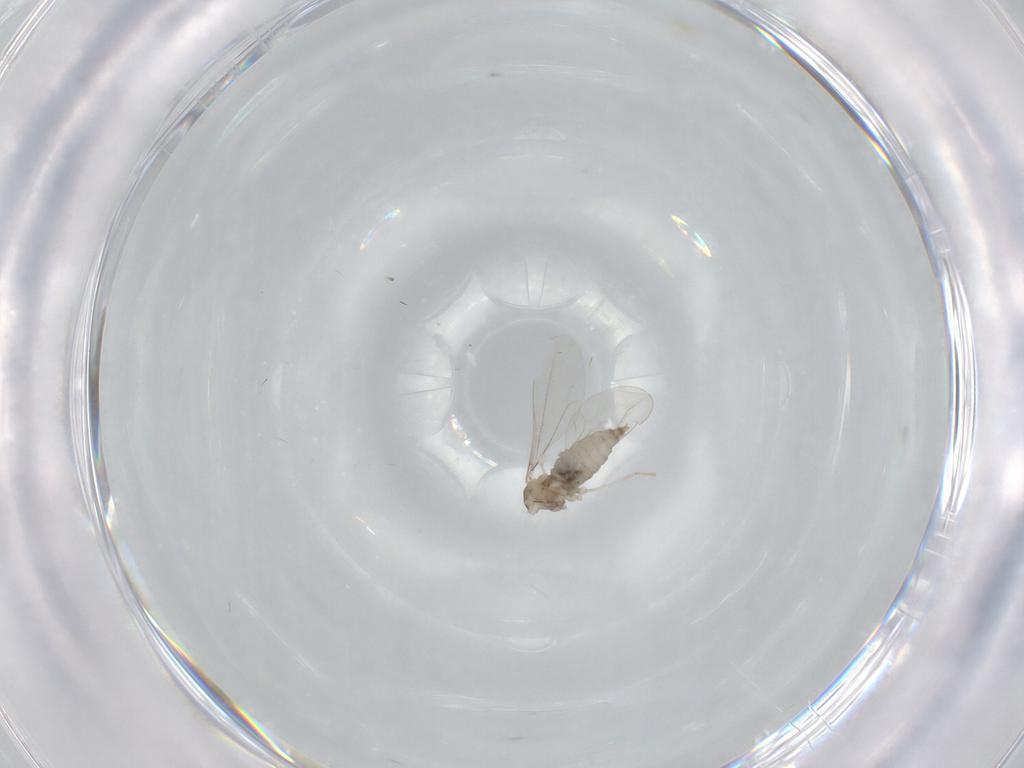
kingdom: Animalia
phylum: Arthropoda
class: Insecta
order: Diptera
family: Cecidomyiidae
